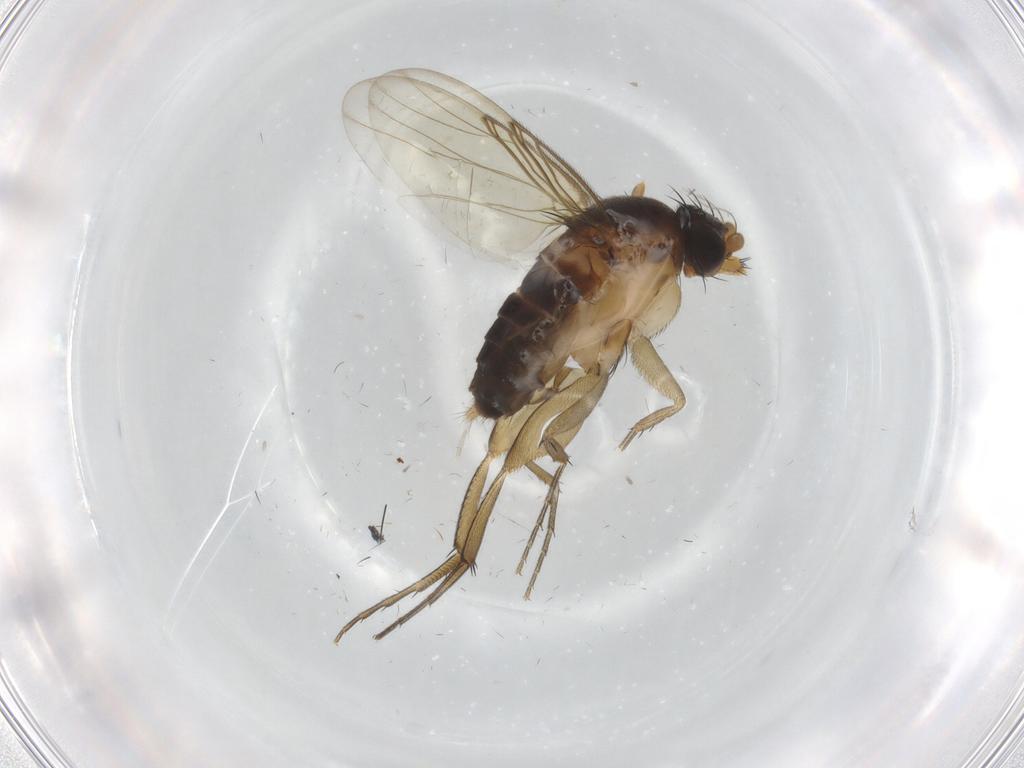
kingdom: Animalia
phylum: Arthropoda
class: Insecta
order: Diptera
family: Phoridae
